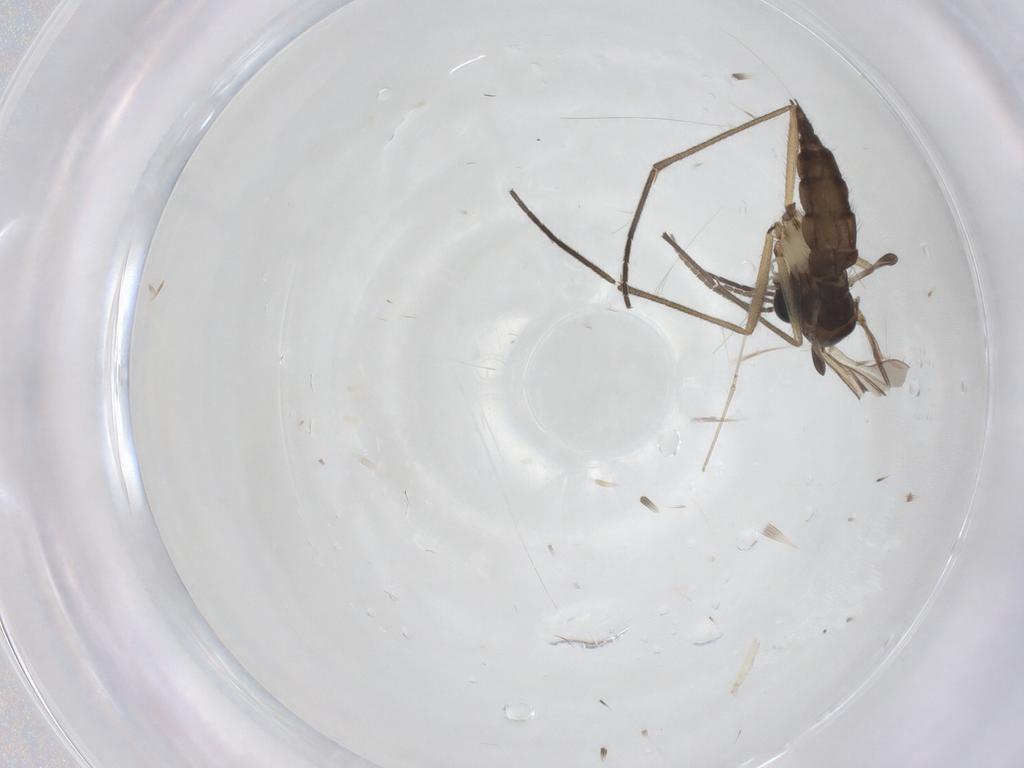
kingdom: Animalia
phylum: Arthropoda
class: Insecta
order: Diptera
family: Sciaridae
